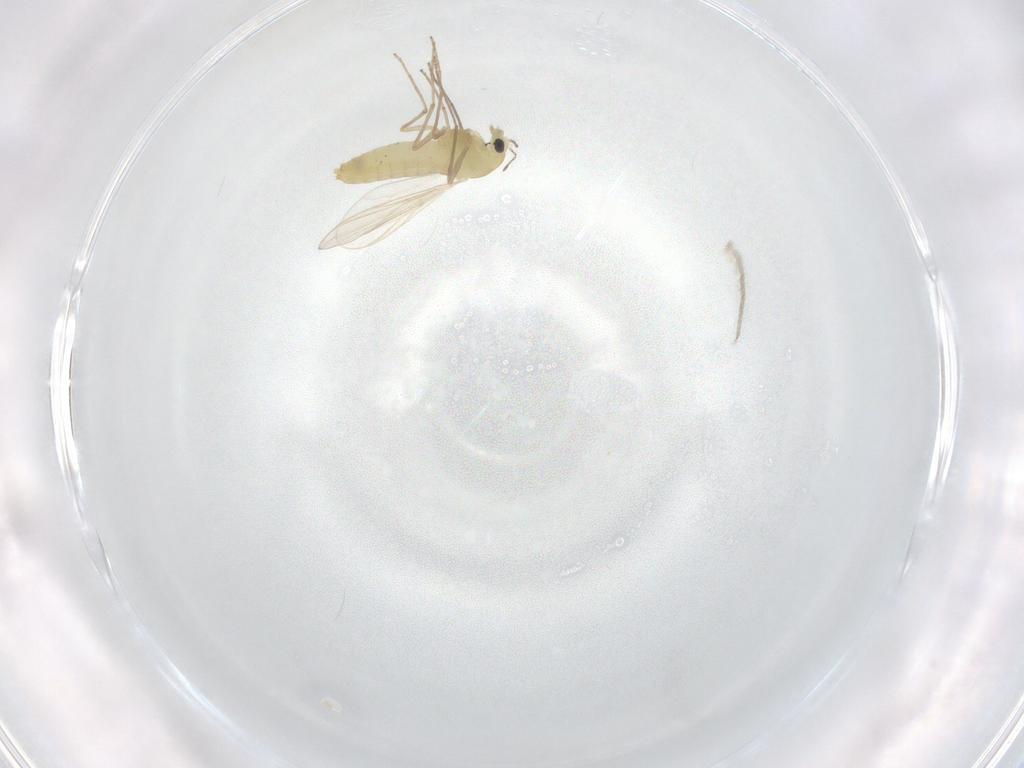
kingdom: Animalia
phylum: Arthropoda
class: Insecta
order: Diptera
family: Chironomidae
